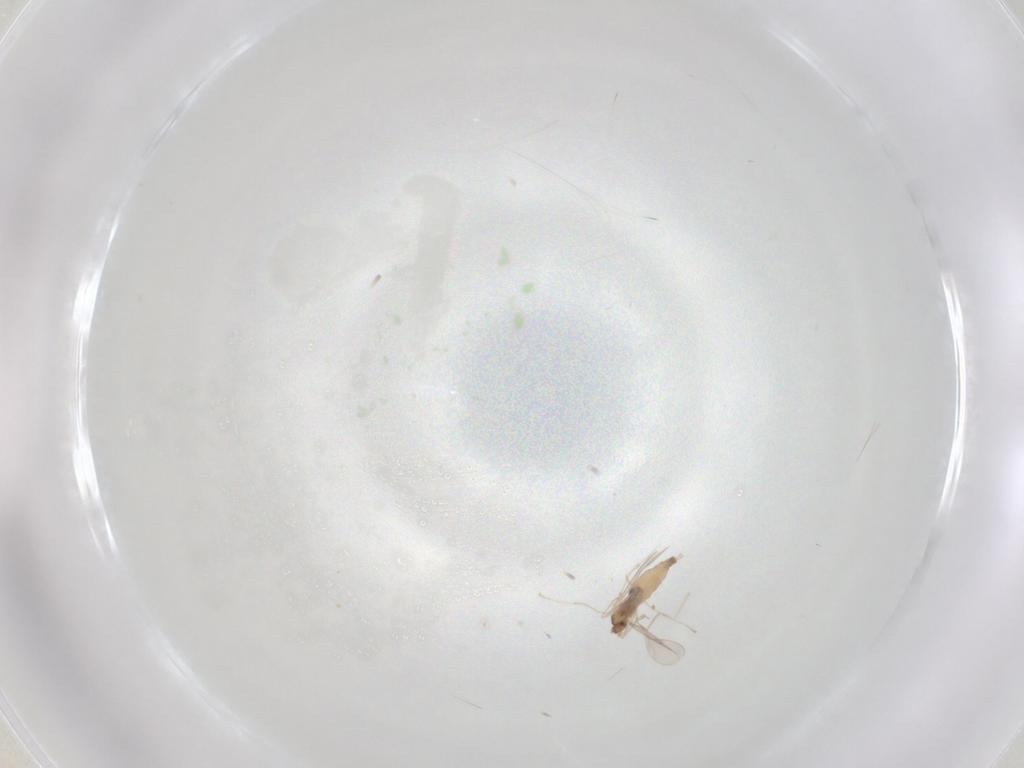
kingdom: Animalia
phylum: Arthropoda
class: Insecta
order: Diptera
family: Cecidomyiidae
